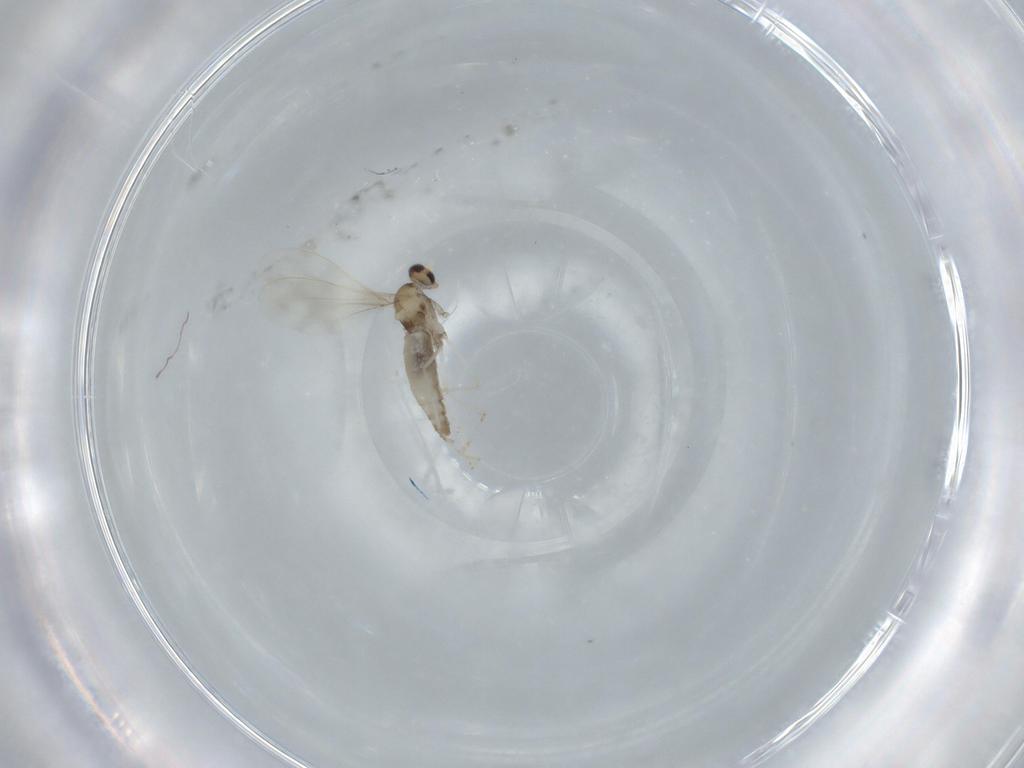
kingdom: Animalia
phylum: Arthropoda
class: Insecta
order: Diptera
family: Cecidomyiidae
